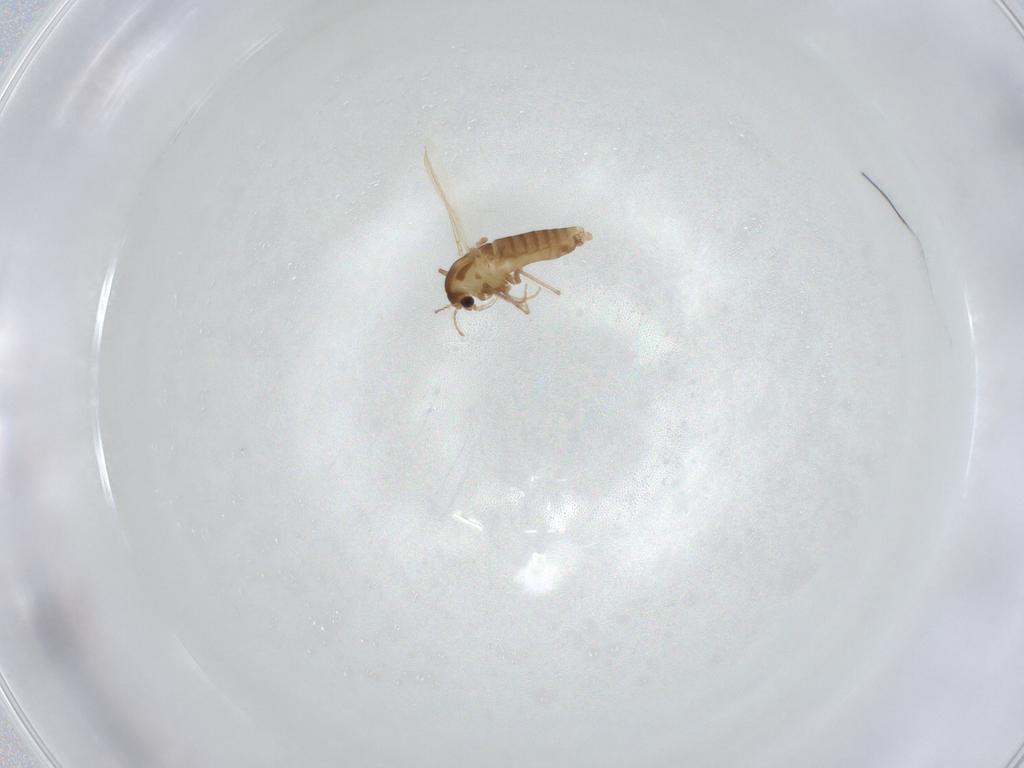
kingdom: Animalia
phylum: Arthropoda
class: Insecta
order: Diptera
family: Chironomidae
